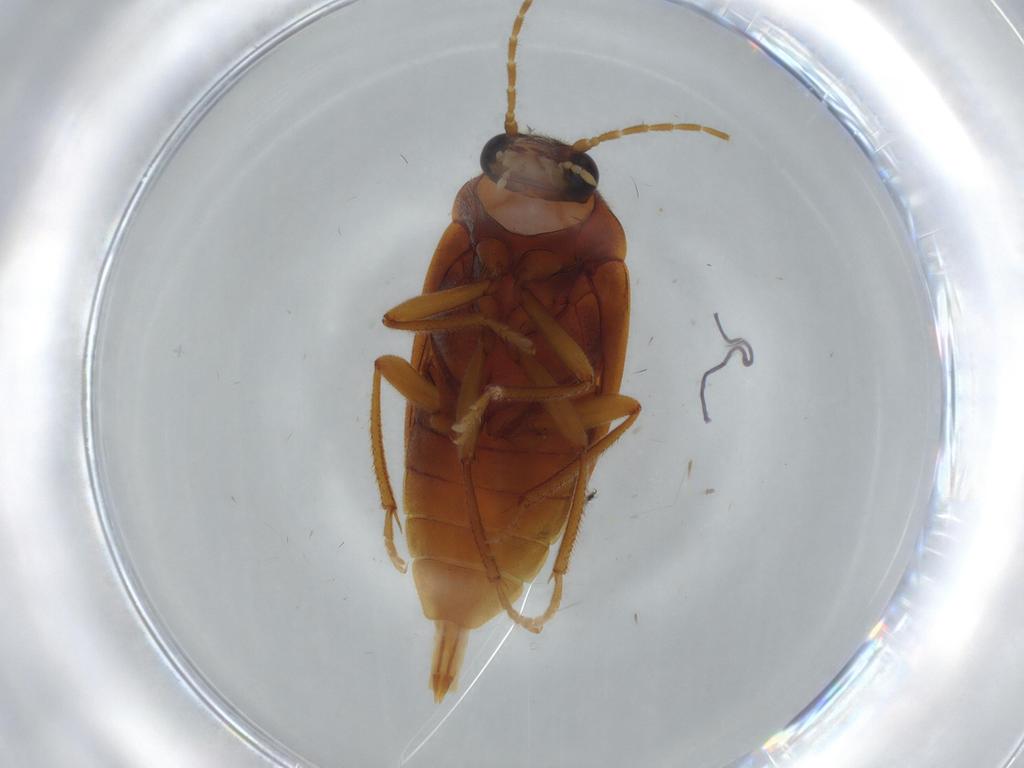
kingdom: Animalia
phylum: Arthropoda
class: Insecta
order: Coleoptera
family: Ptilodactylidae
